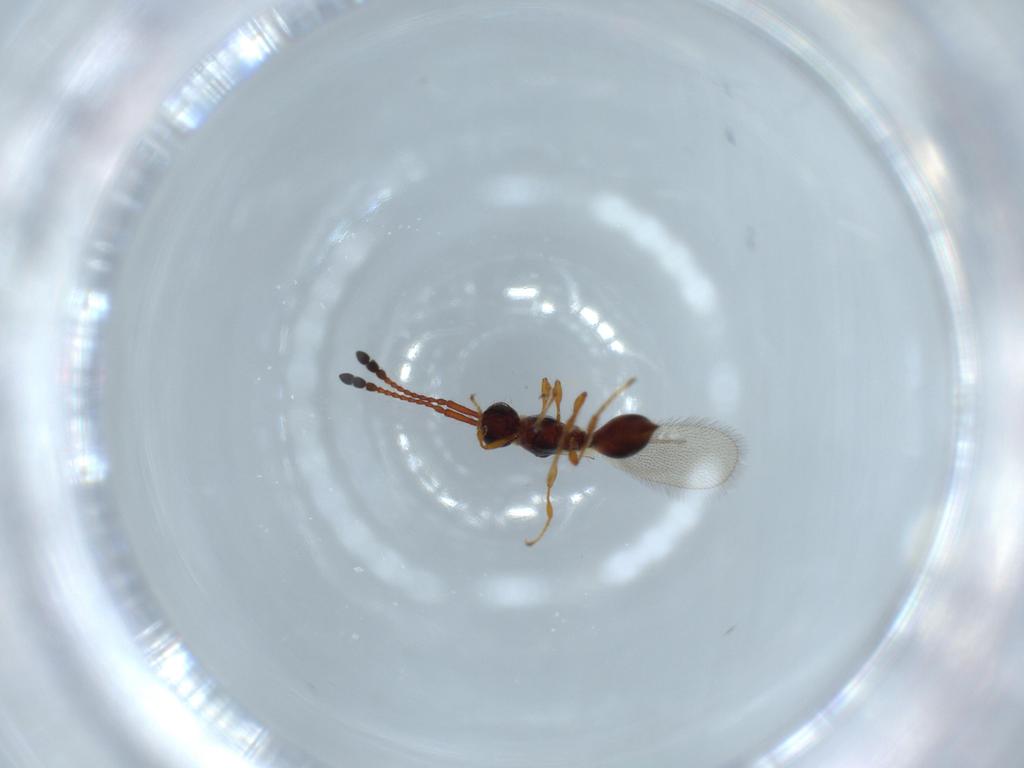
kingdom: Animalia
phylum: Arthropoda
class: Insecta
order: Hymenoptera
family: Diapriidae
